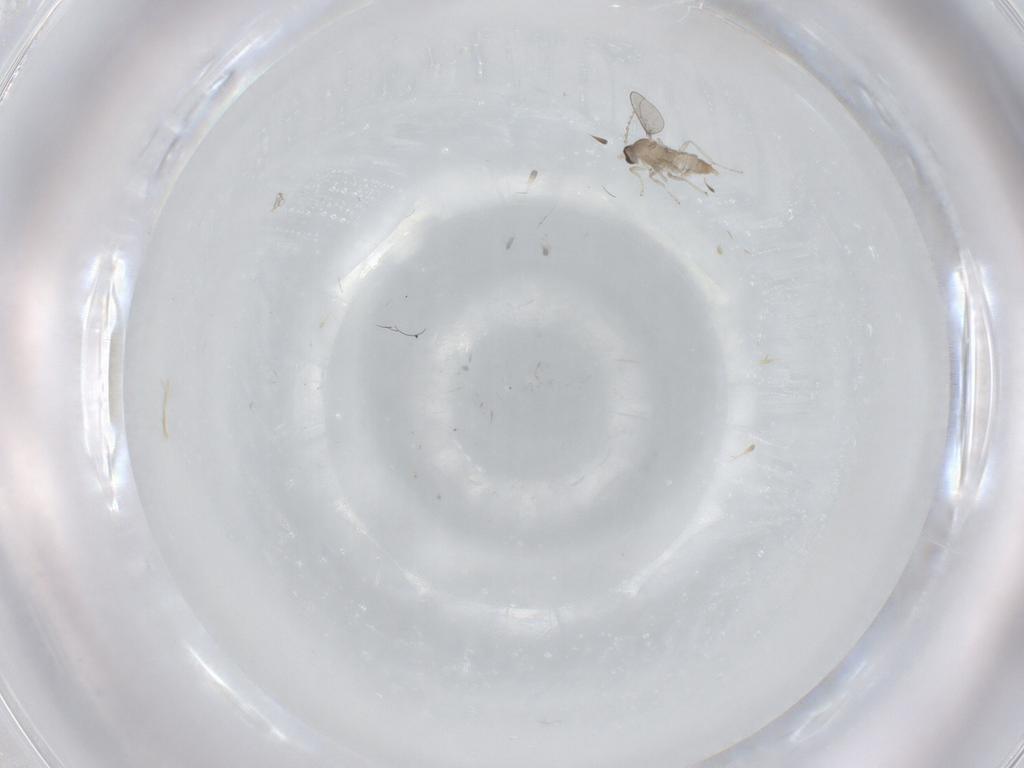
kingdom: Animalia
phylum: Arthropoda
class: Insecta
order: Diptera
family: Cecidomyiidae
